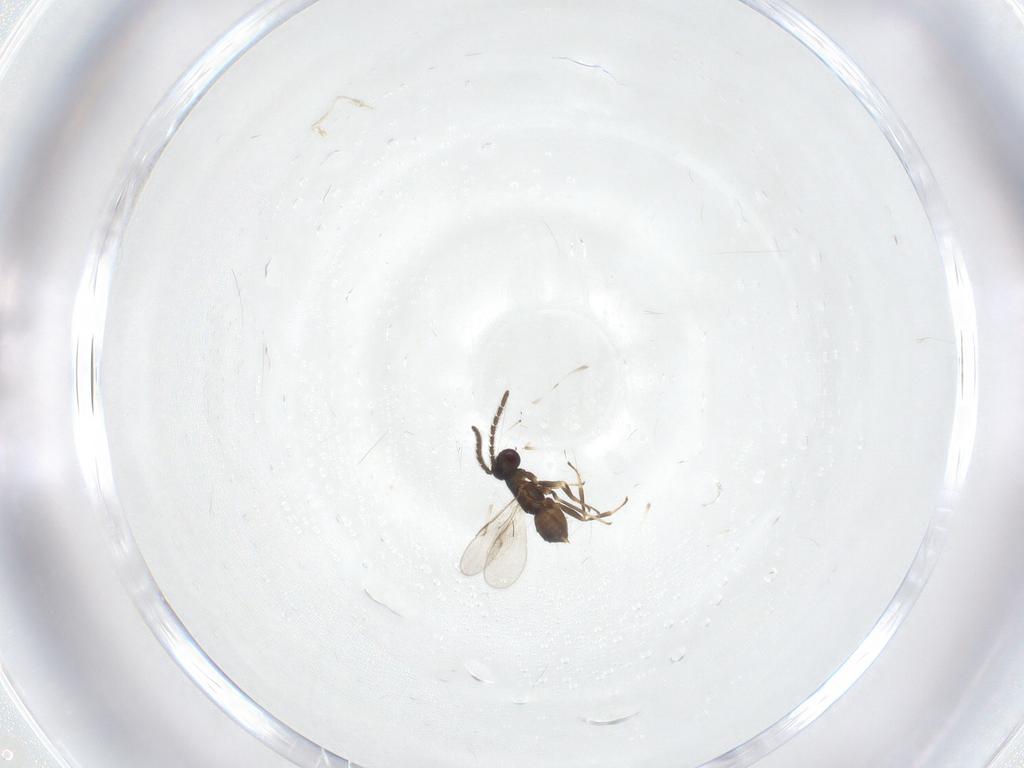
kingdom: Animalia
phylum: Arthropoda
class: Insecta
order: Hymenoptera
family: Encyrtidae
